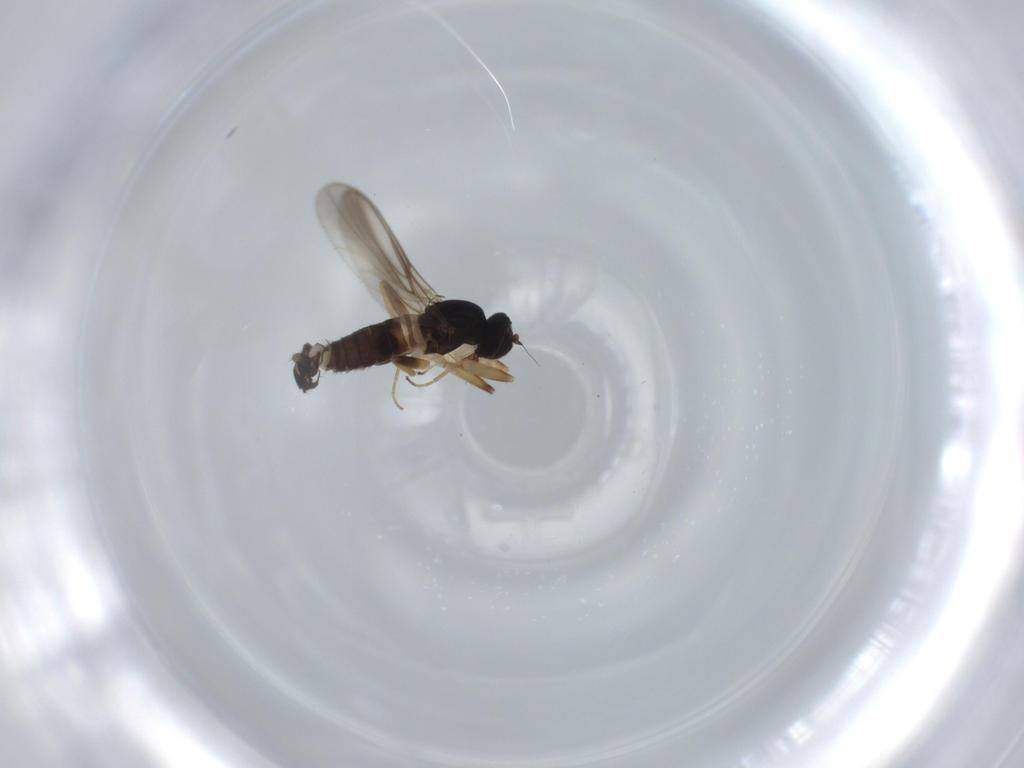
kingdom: Animalia
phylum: Arthropoda
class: Insecta
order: Diptera
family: Hybotidae
